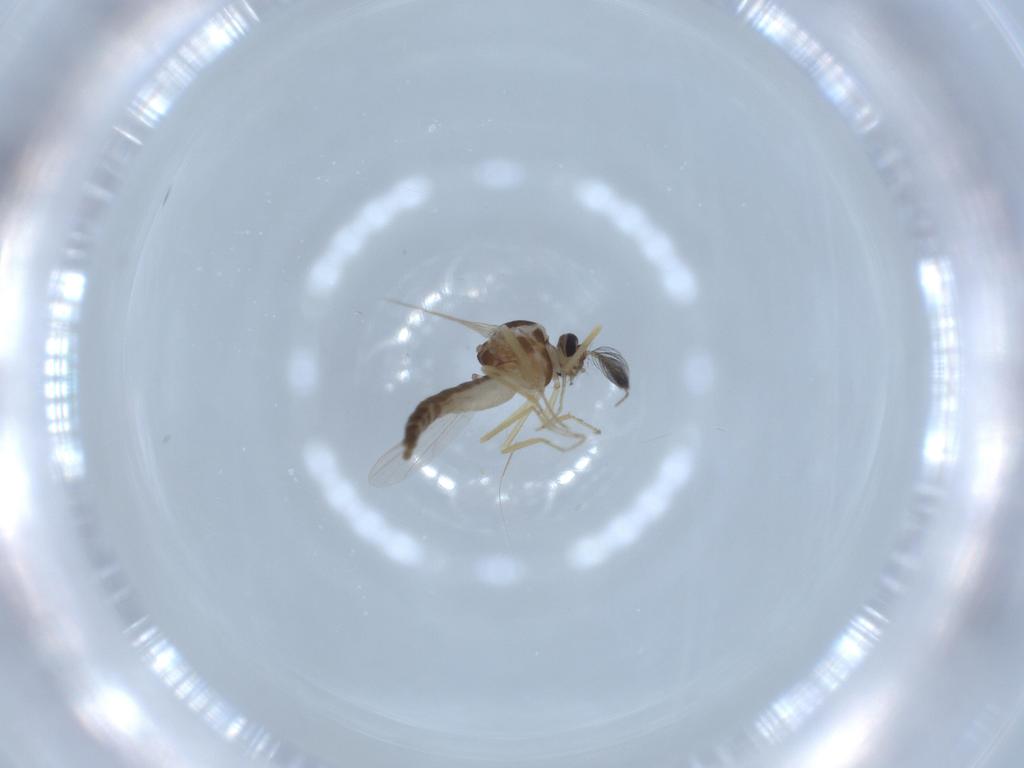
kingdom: Animalia
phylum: Arthropoda
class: Insecta
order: Diptera
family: Ceratopogonidae
